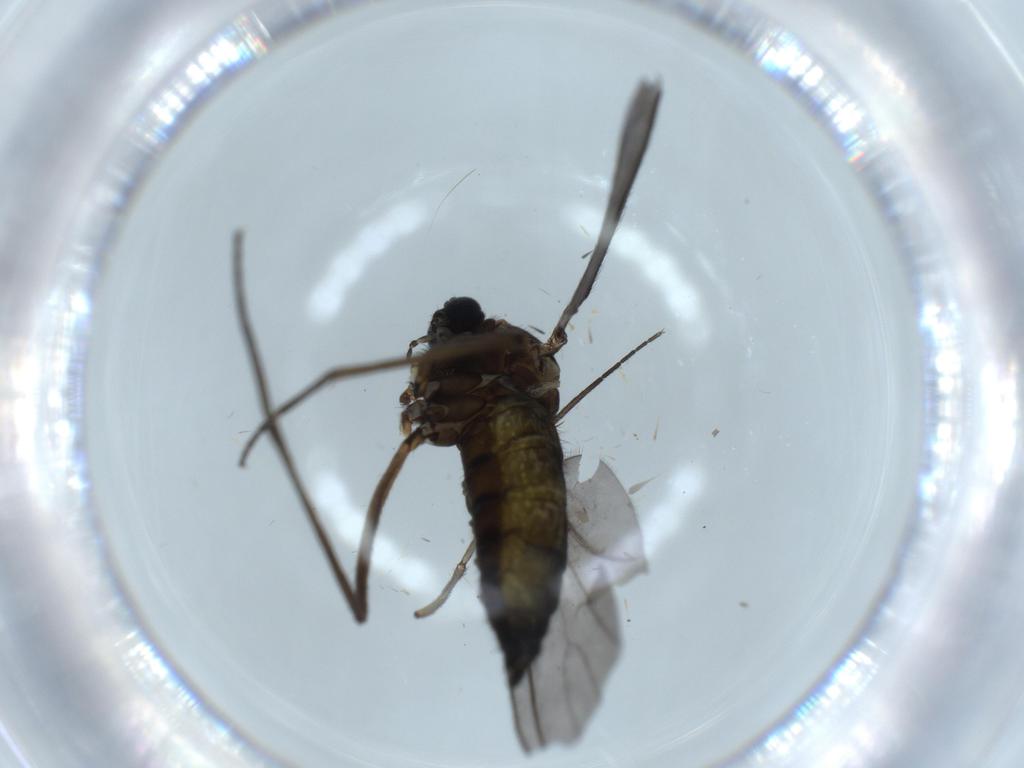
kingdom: Animalia
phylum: Arthropoda
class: Insecta
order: Diptera
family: Sciaridae
